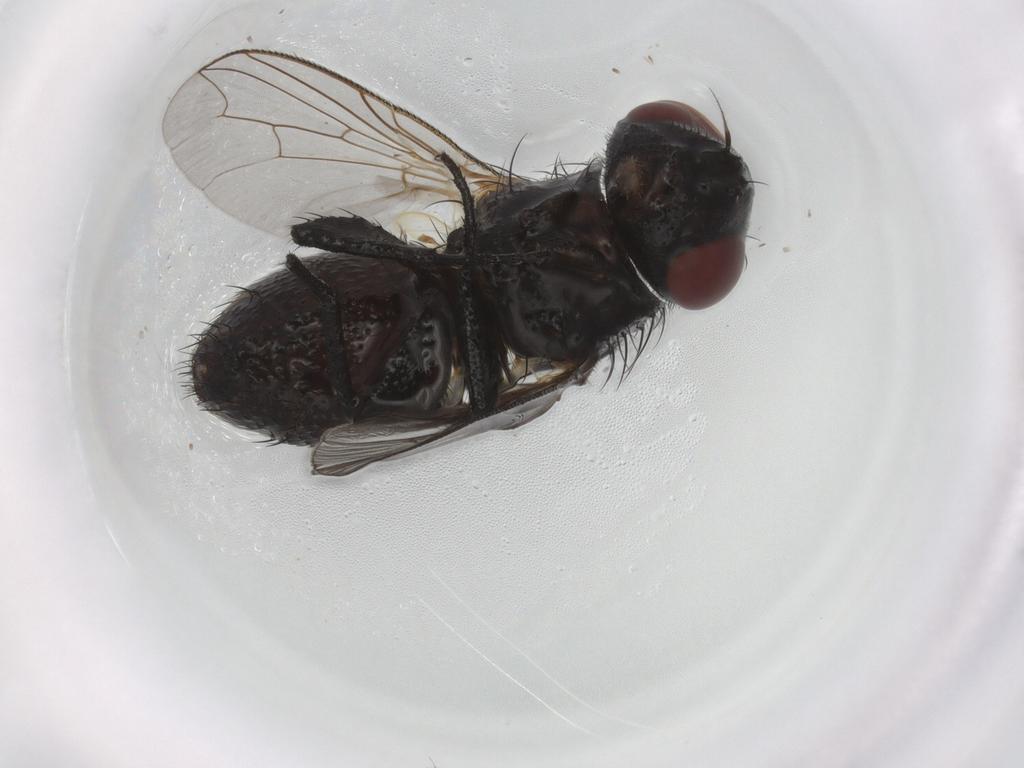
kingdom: Animalia
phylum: Arthropoda
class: Insecta
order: Diptera
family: Sarcophagidae
